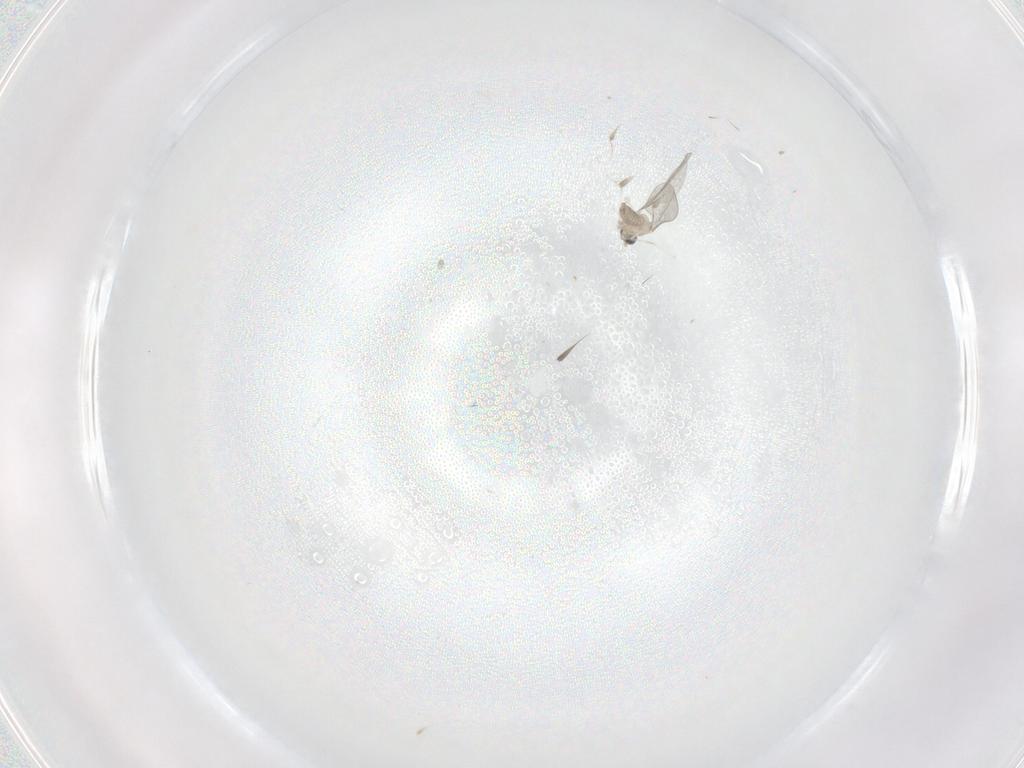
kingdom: Animalia
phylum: Arthropoda
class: Insecta
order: Diptera
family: Cecidomyiidae
